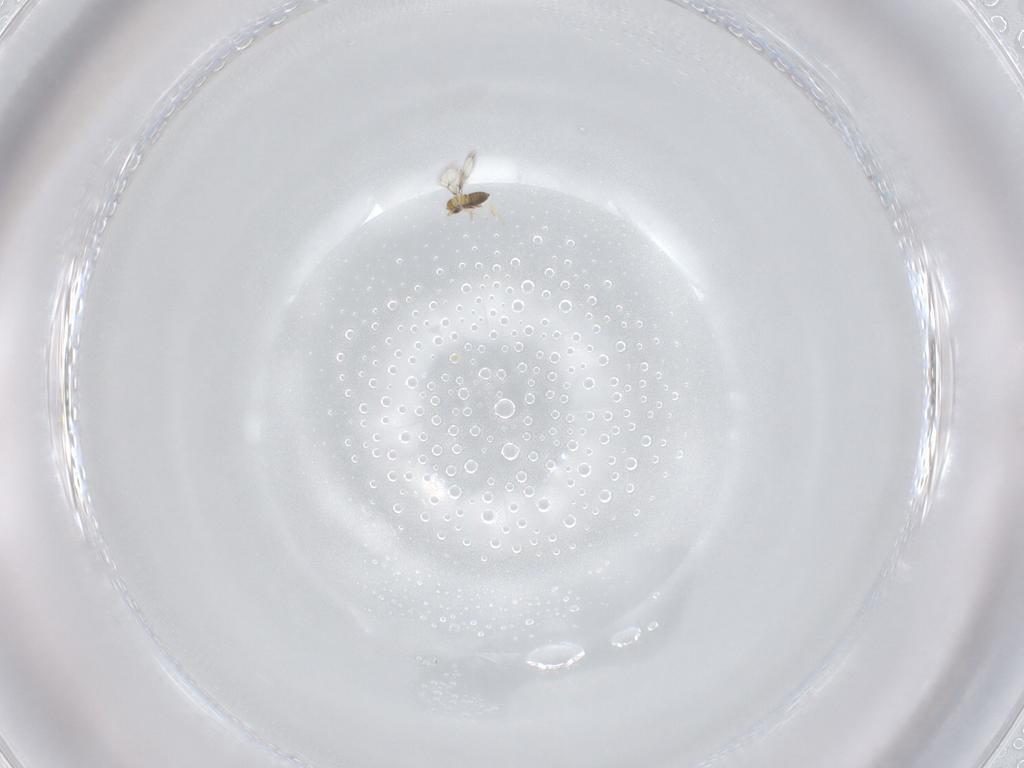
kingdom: Animalia
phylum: Arthropoda
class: Insecta
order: Hymenoptera
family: Trichogrammatidae
